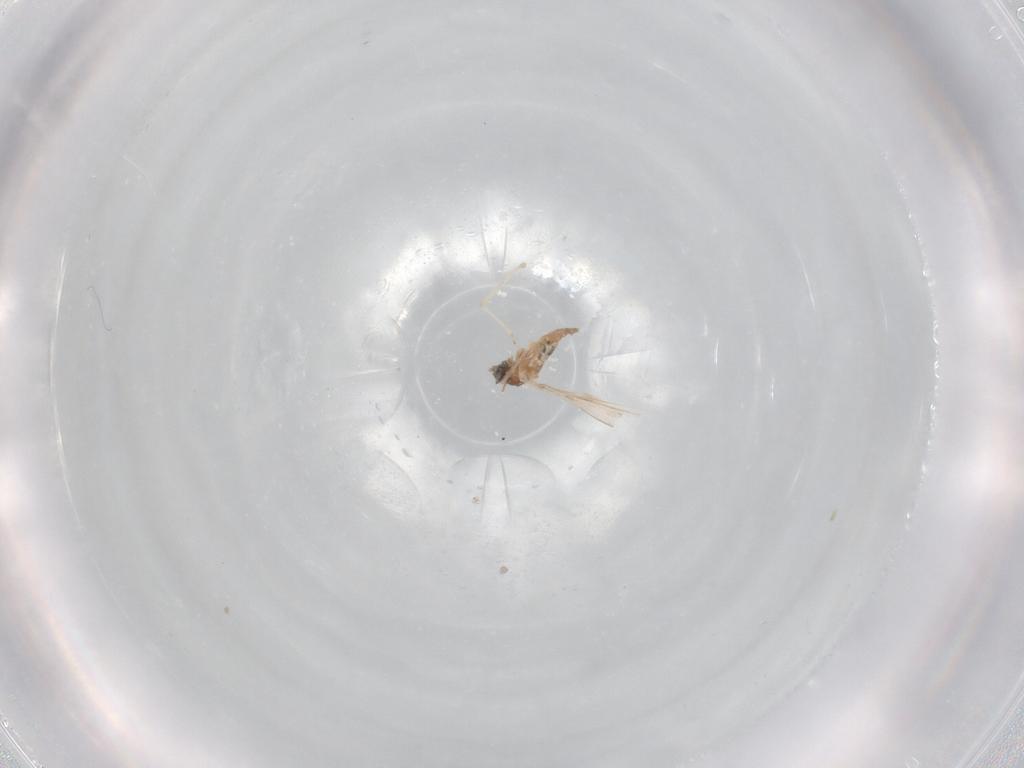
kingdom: Animalia
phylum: Arthropoda
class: Insecta
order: Diptera
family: Cecidomyiidae
